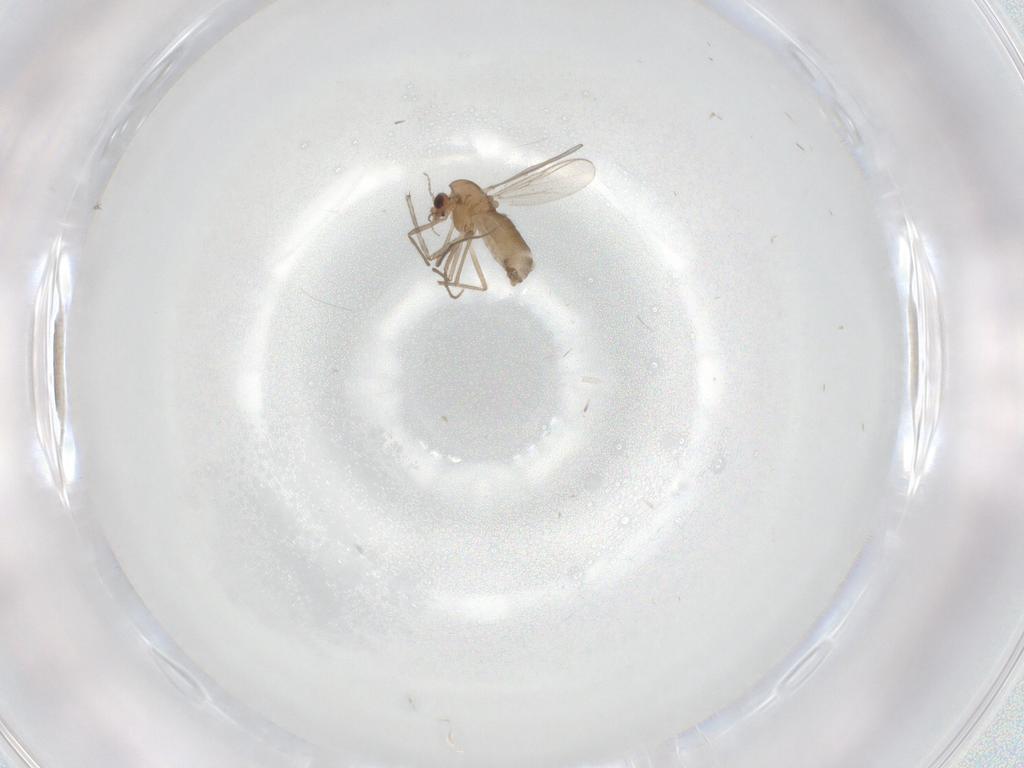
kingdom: Animalia
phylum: Arthropoda
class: Insecta
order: Diptera
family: Chironomidae
